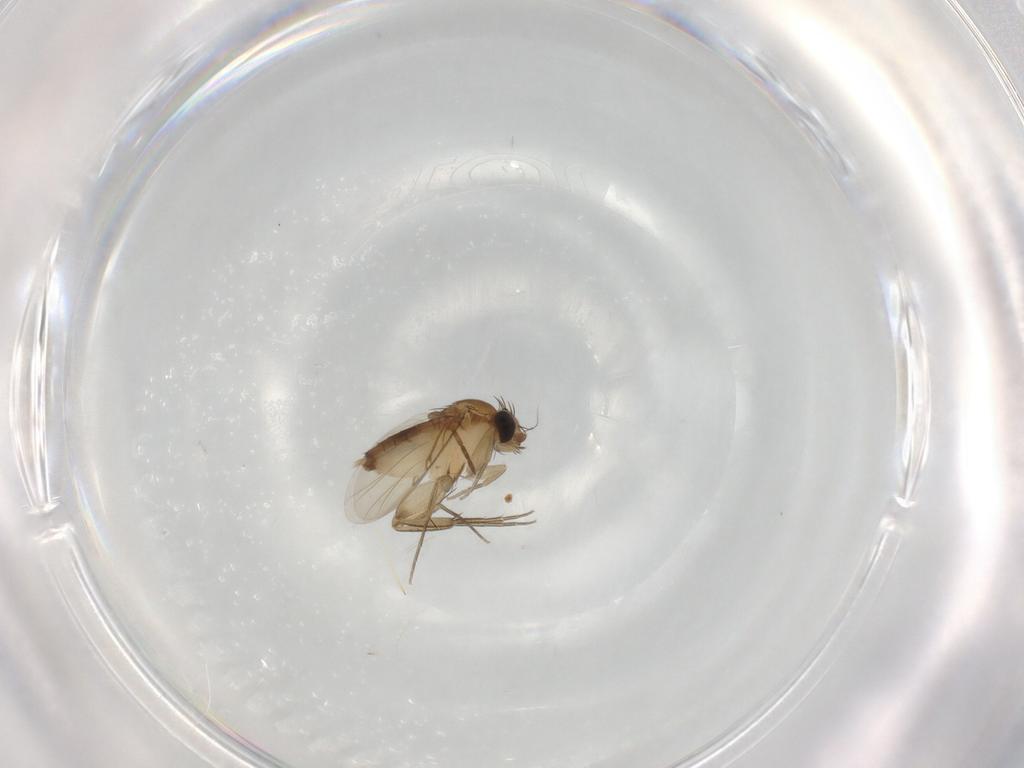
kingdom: Animalia
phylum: Arthropoda
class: Insecta
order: Diptera
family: Phoridae
